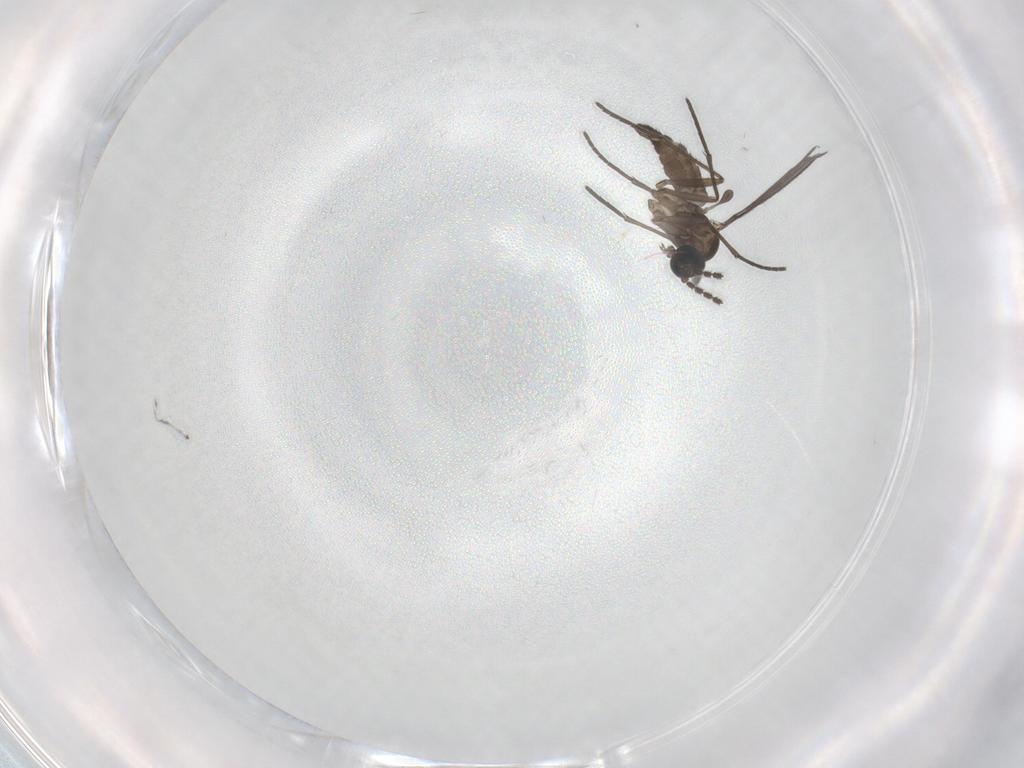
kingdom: Animalia
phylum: Arthropoda
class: Insecta
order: Diptera
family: Sciaridae
